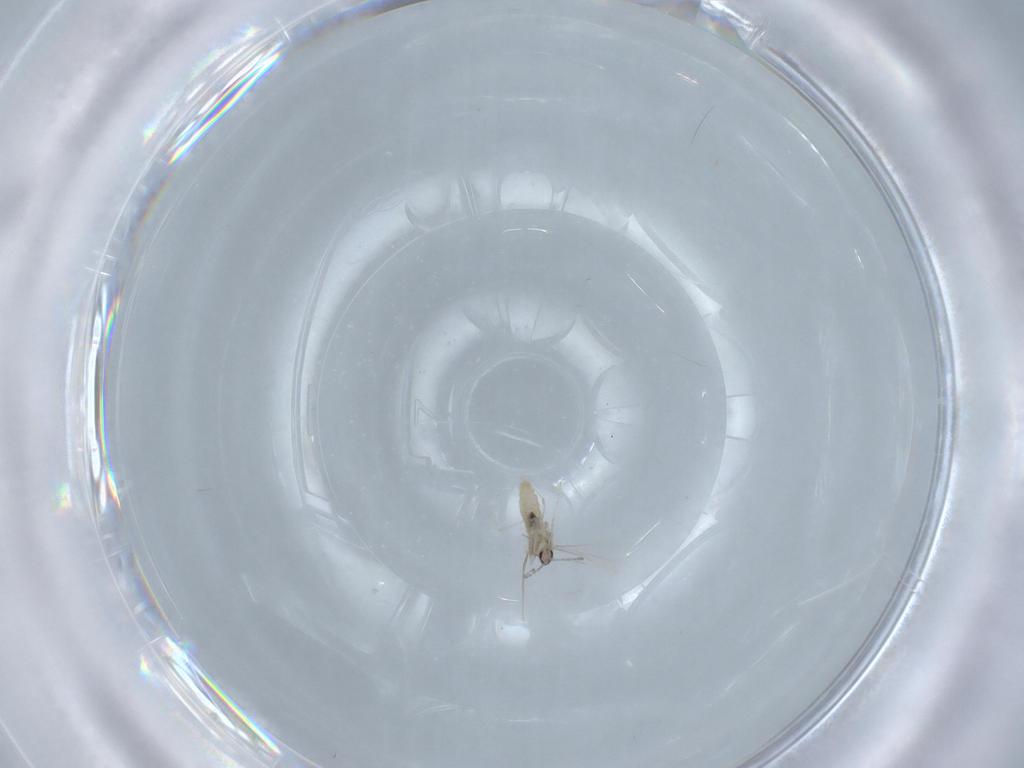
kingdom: Animalia
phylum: Arthropoda
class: Insecta
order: Diptera
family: Cecidomyiidae
